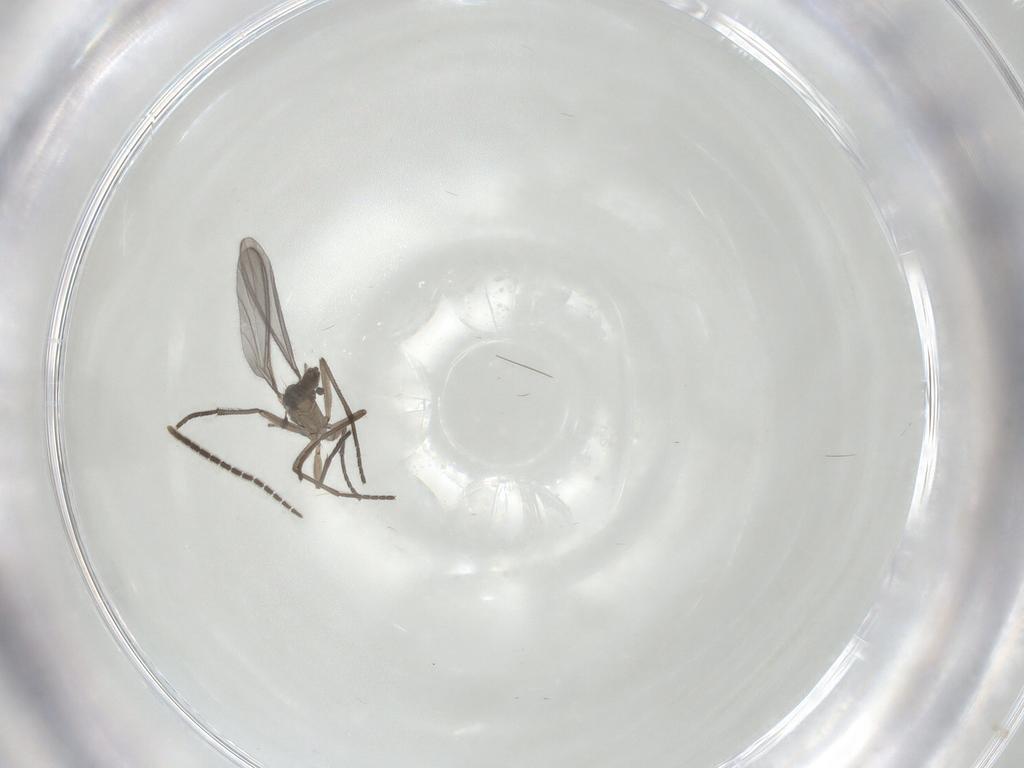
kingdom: Animalia
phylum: Arthropoda
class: Insecta
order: Diptera
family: Sciaridae
